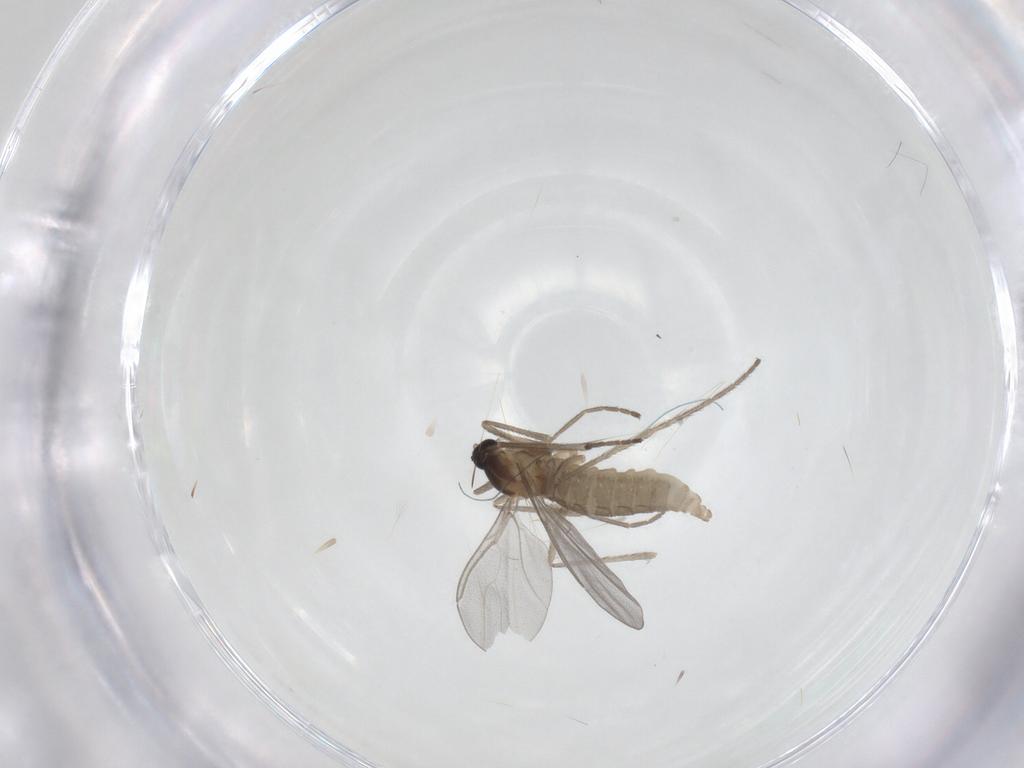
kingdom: Animalia
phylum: Arthropoda
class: Insecta
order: Diptera
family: Cecidomyiidae
